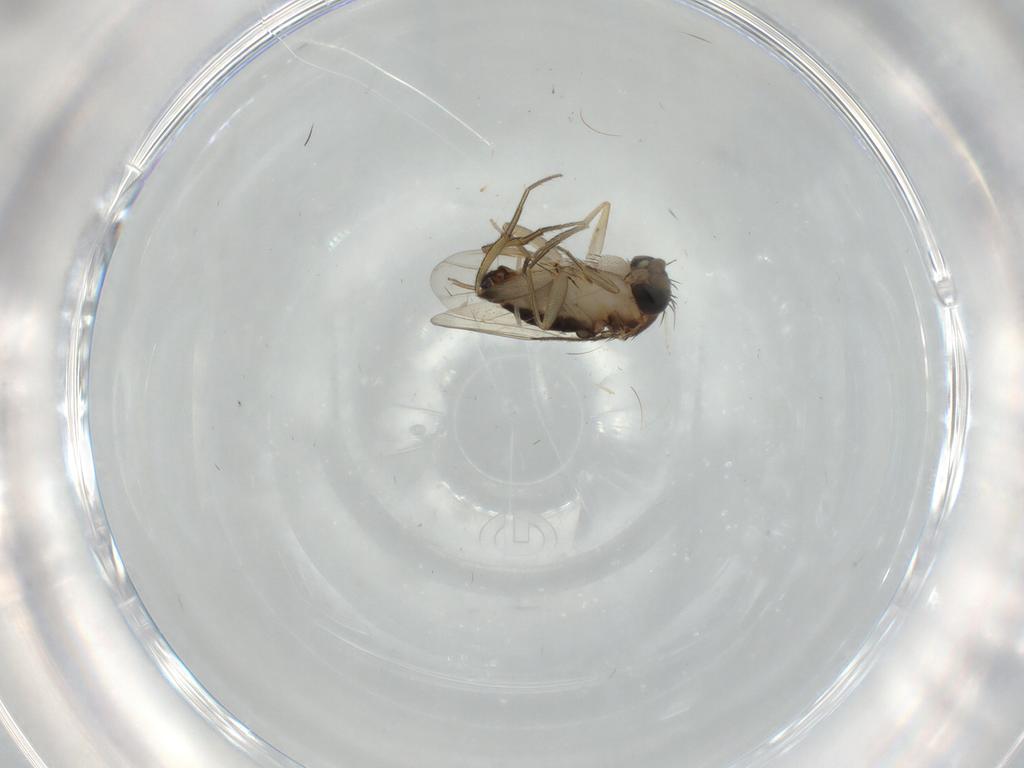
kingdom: Animalia
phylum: Arthropoda
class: Insecta
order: Diptera
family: Phoridae
